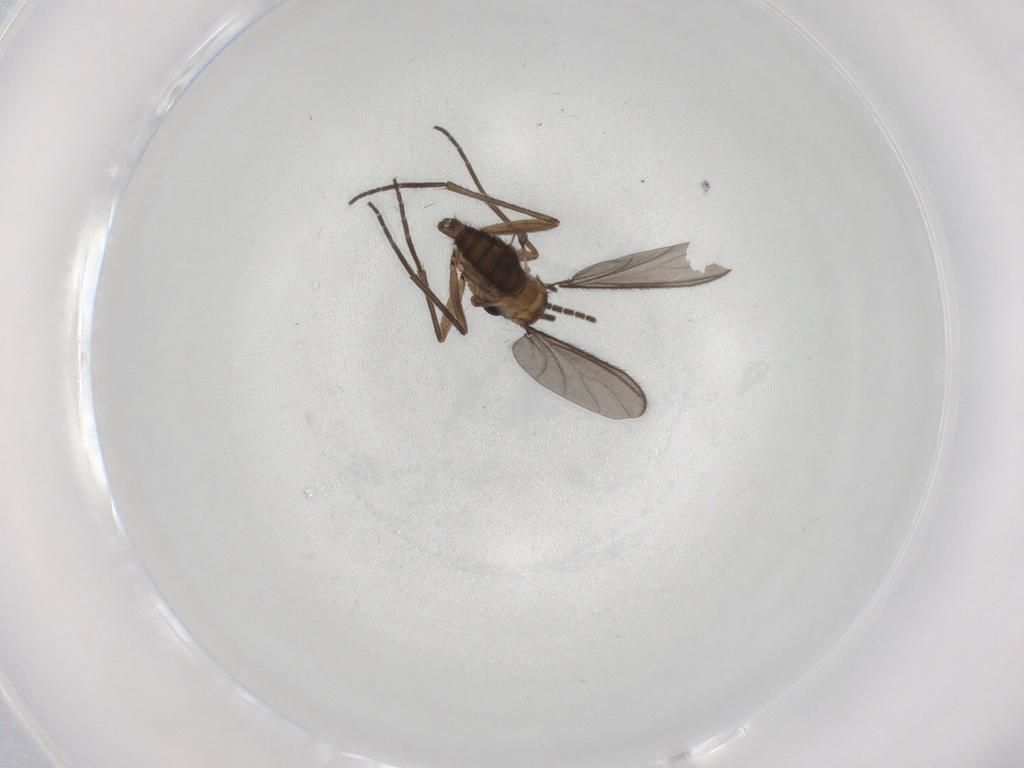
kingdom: Animalia
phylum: Arthropoda
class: Insecta
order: Diptera
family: Sciaridae
